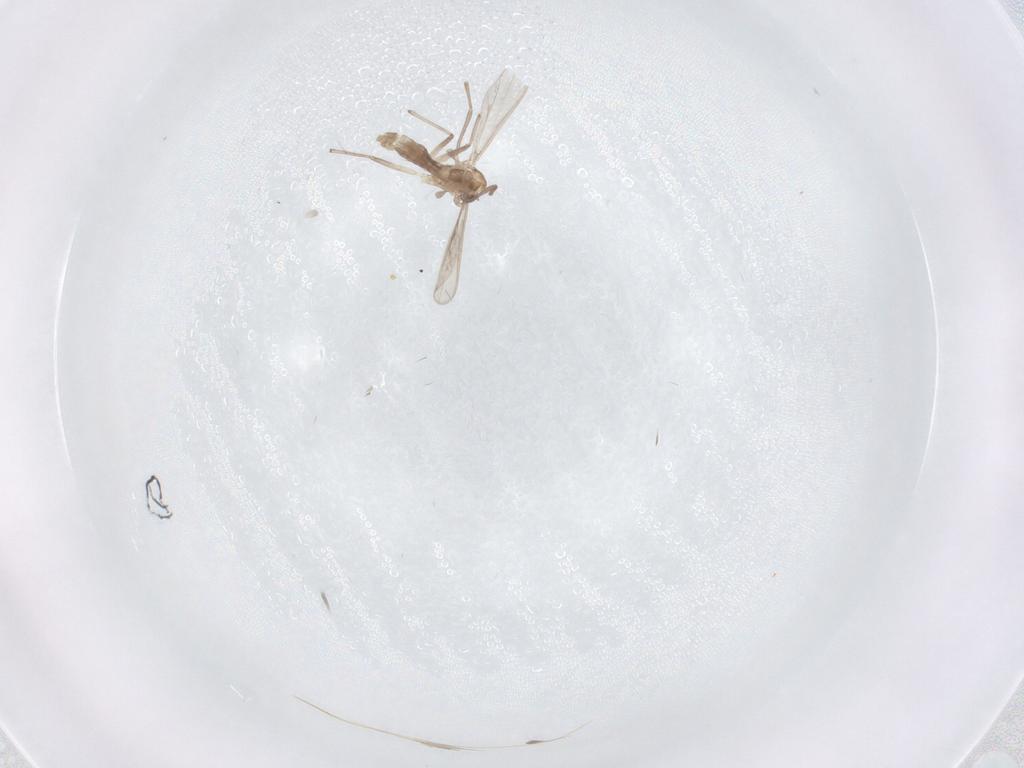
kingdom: Animalia
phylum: Arthropoda
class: Insecta
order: Diptera
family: Chironomidae
